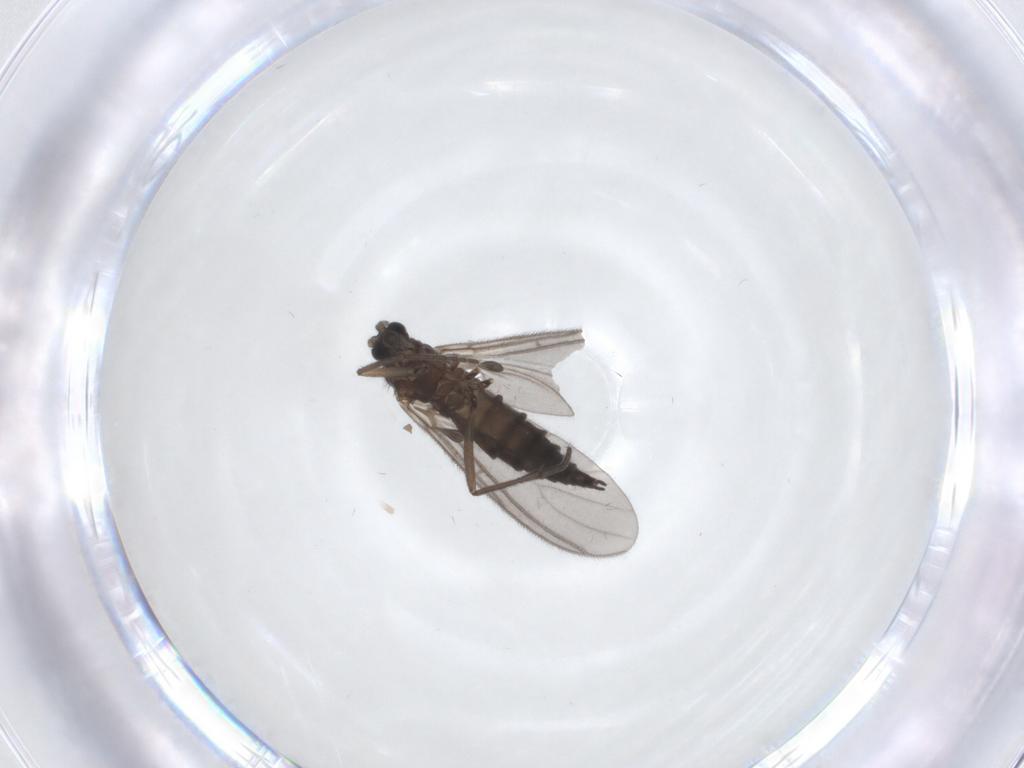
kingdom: Animalia
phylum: Arthropoda
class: Insecta
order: Diptera
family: Sciaridae
